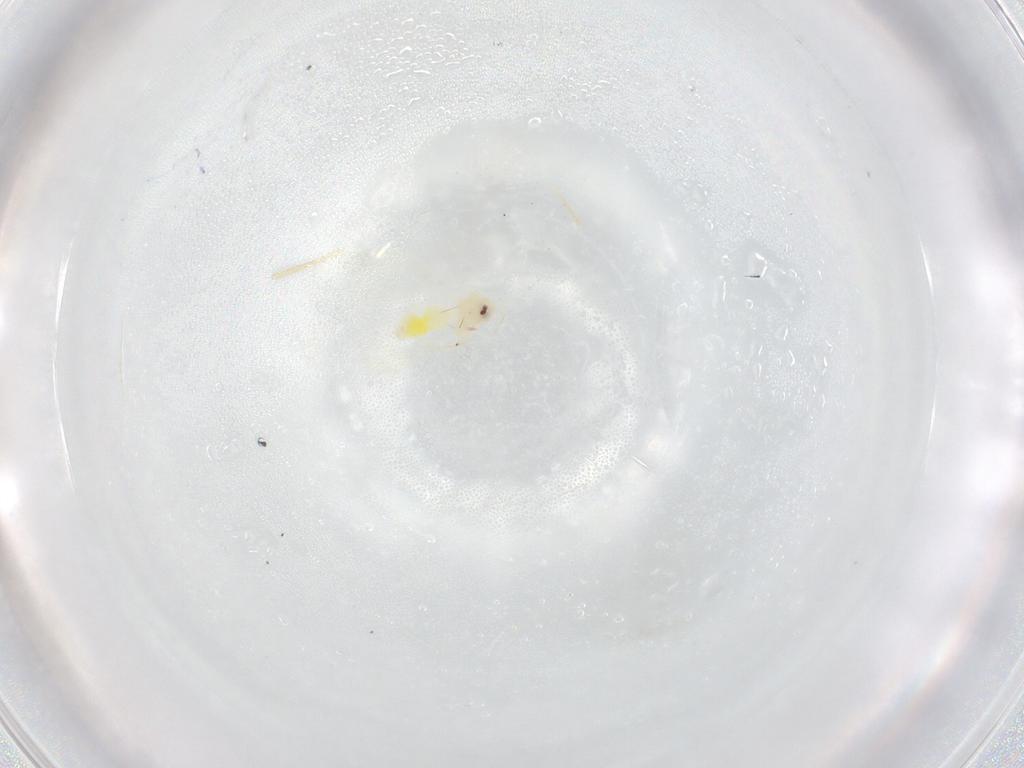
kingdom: Animalia
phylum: Arthropoda
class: Insecta
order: Hemiptera
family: Aleyrodidae
